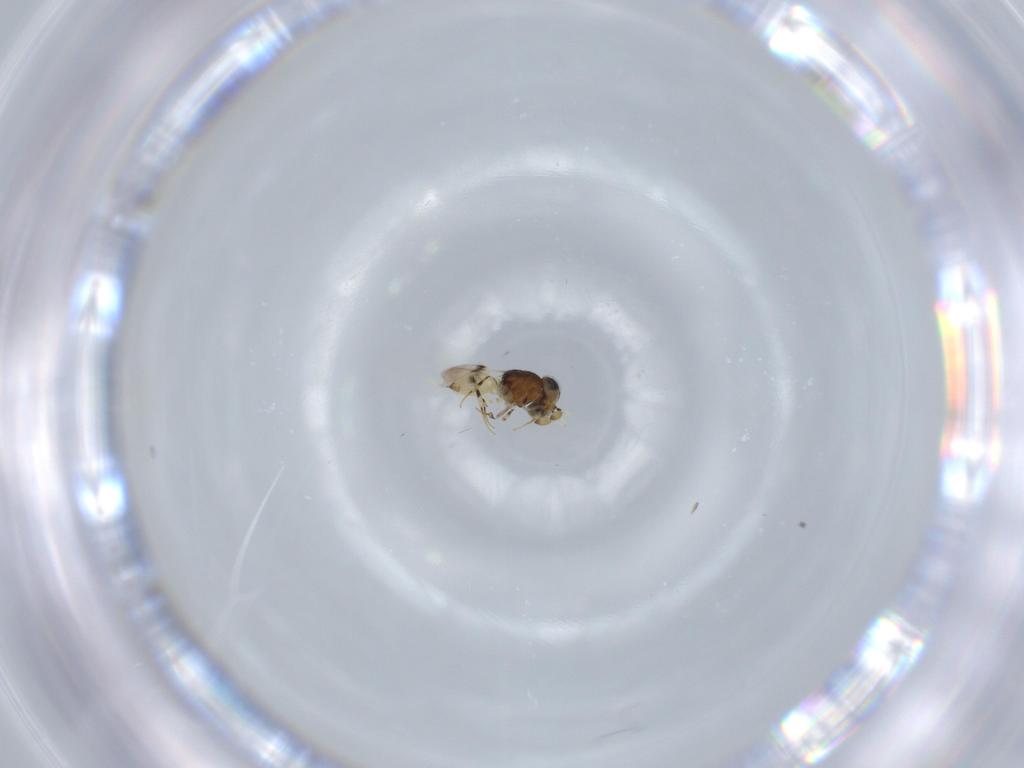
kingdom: Animalia
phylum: Arthropoda
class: Insecta
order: Hymenoptera
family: Scelionidae
